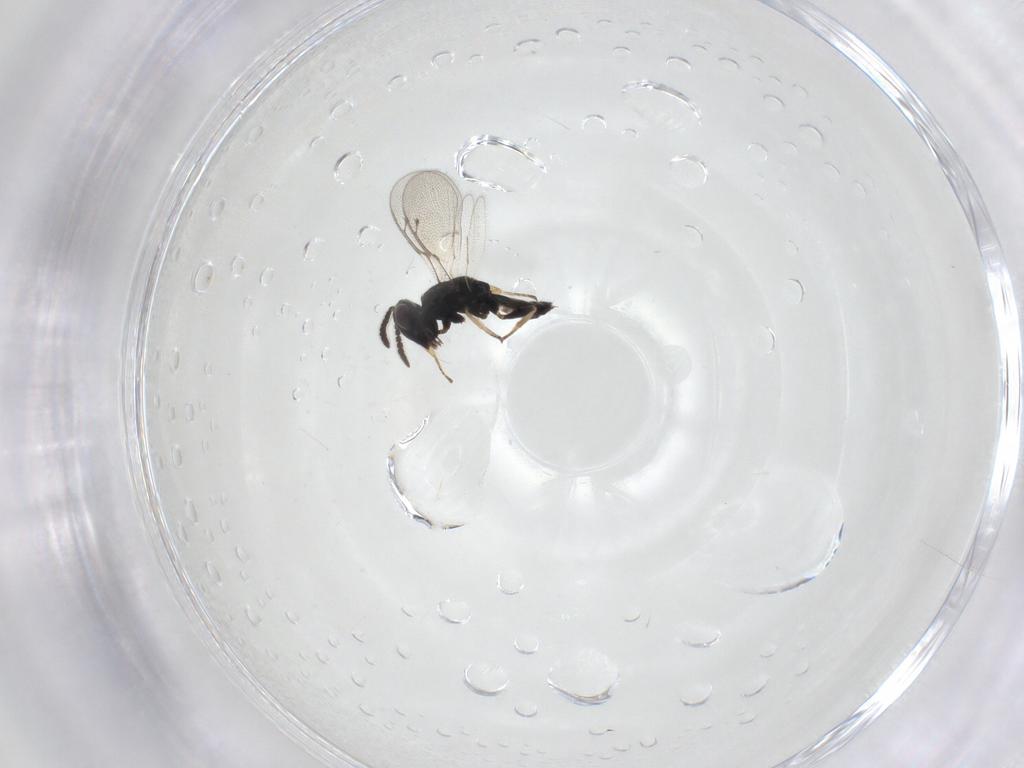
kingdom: Animalia
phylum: Arthropoda
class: Insecta
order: Hymenoptera
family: Pteromalidae
